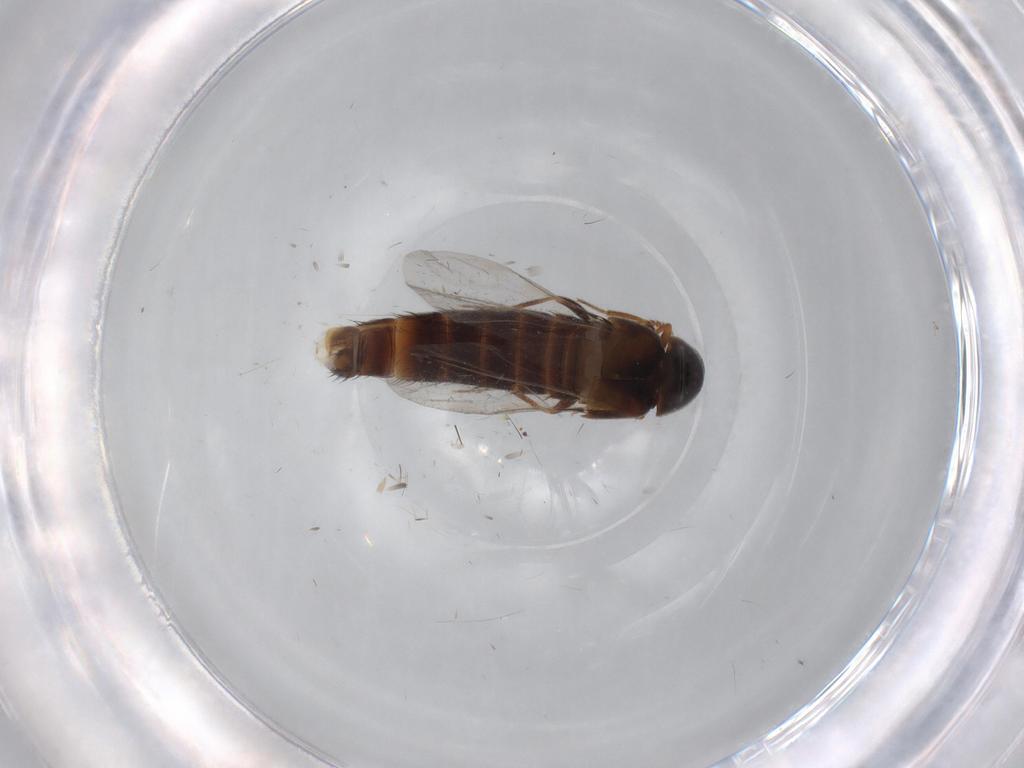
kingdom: Animalia
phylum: Arthropoda
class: Insecta
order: Coleoptera
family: Staphylinidae
